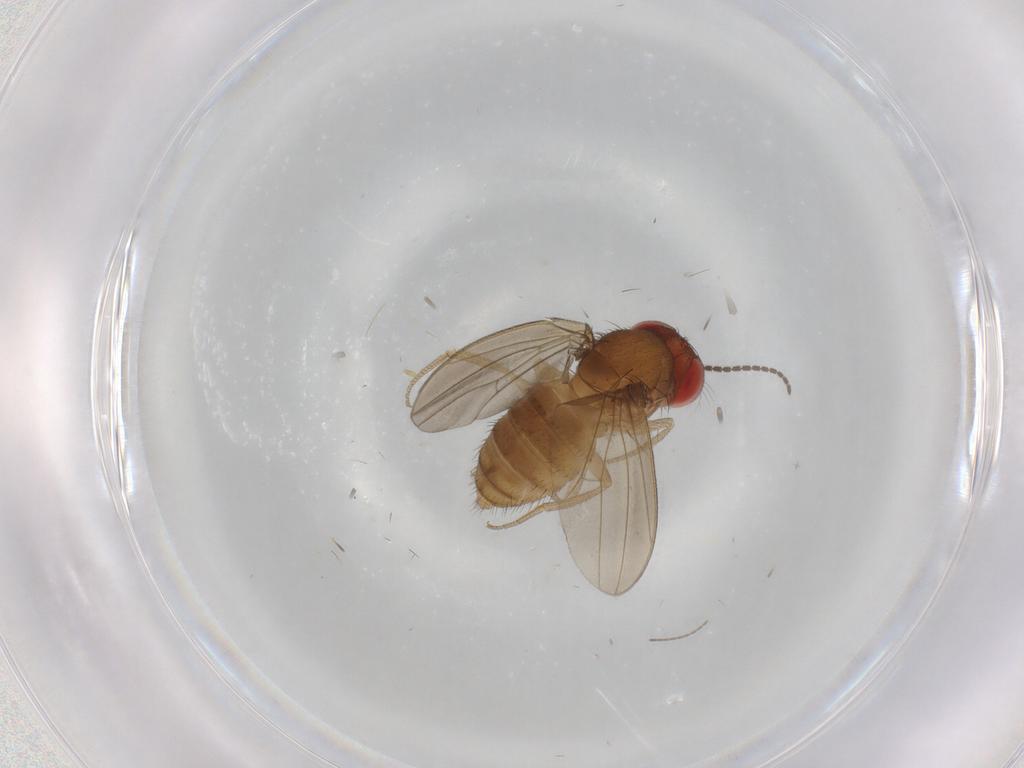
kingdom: Animalia
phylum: Arthropoda
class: Insecta
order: Diptera
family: Drosophilidae
